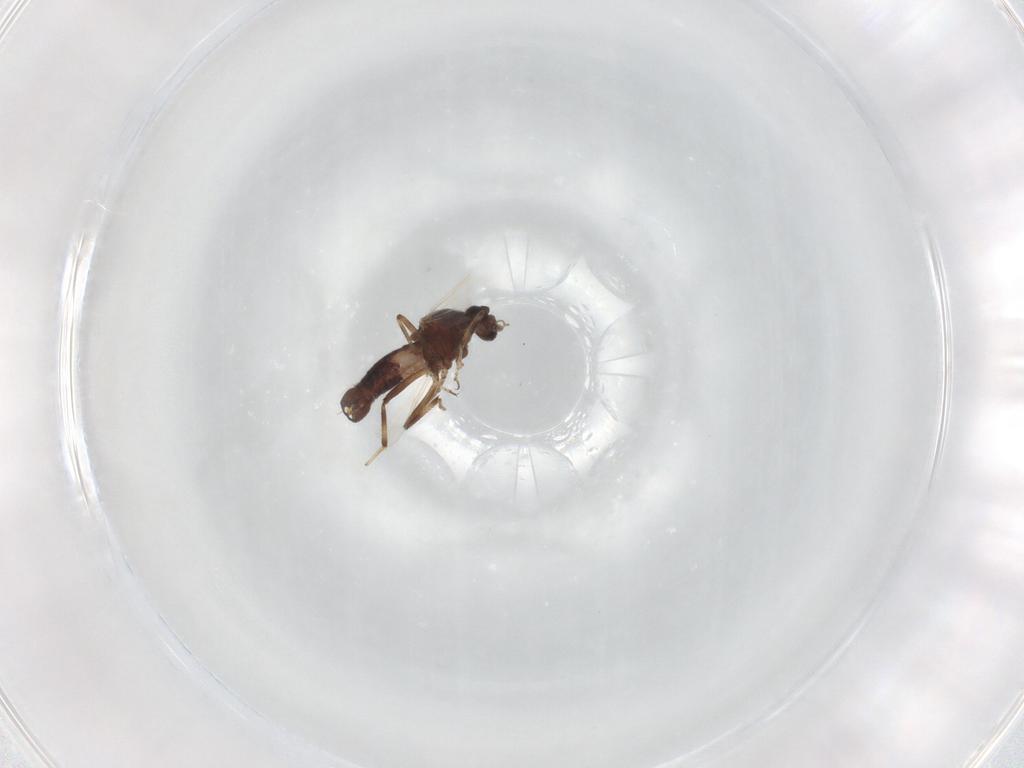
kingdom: Animalia
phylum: Arthropoda
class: Insecta
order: Diptera
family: Ceratopogonidae
